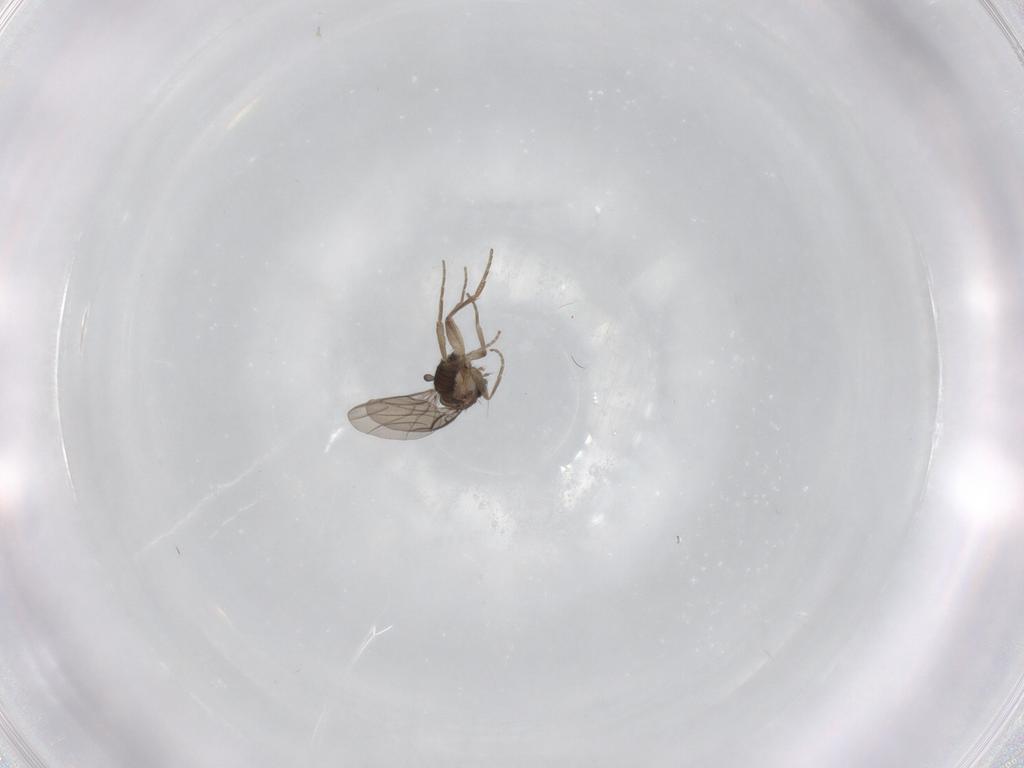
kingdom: Animalia
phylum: Arthropoda
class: Insecta
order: Diptera
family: Phoridae
